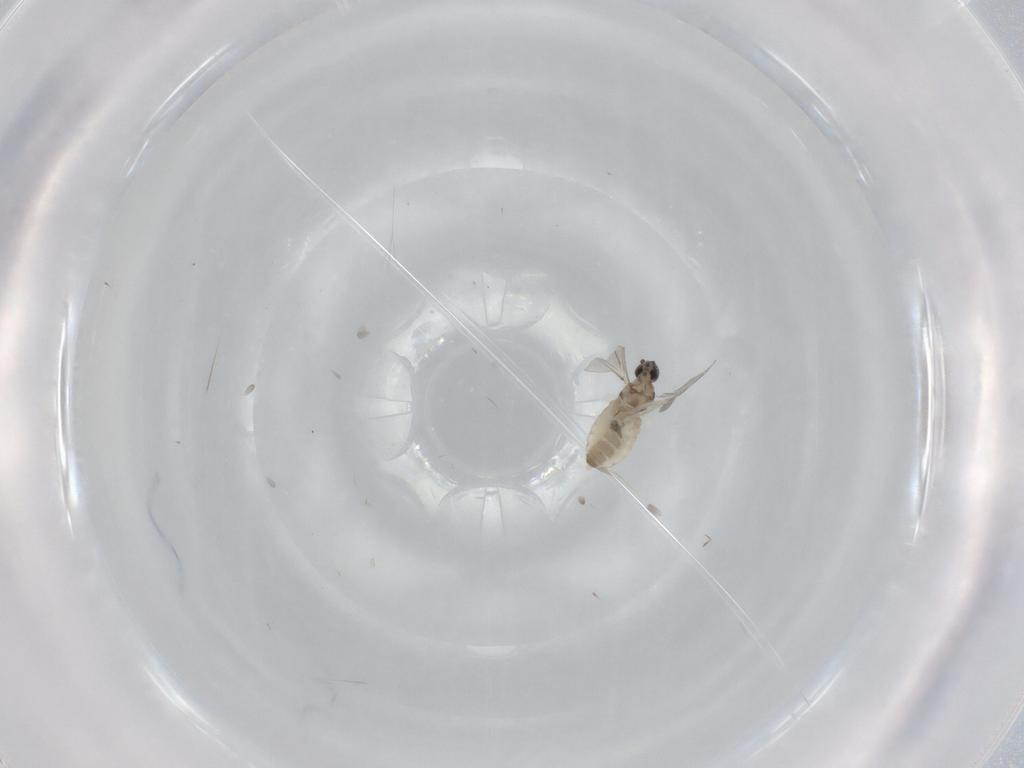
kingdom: Animalia
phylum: Arthropoda
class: Insecta
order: Diptera
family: Cecidomyiidae
